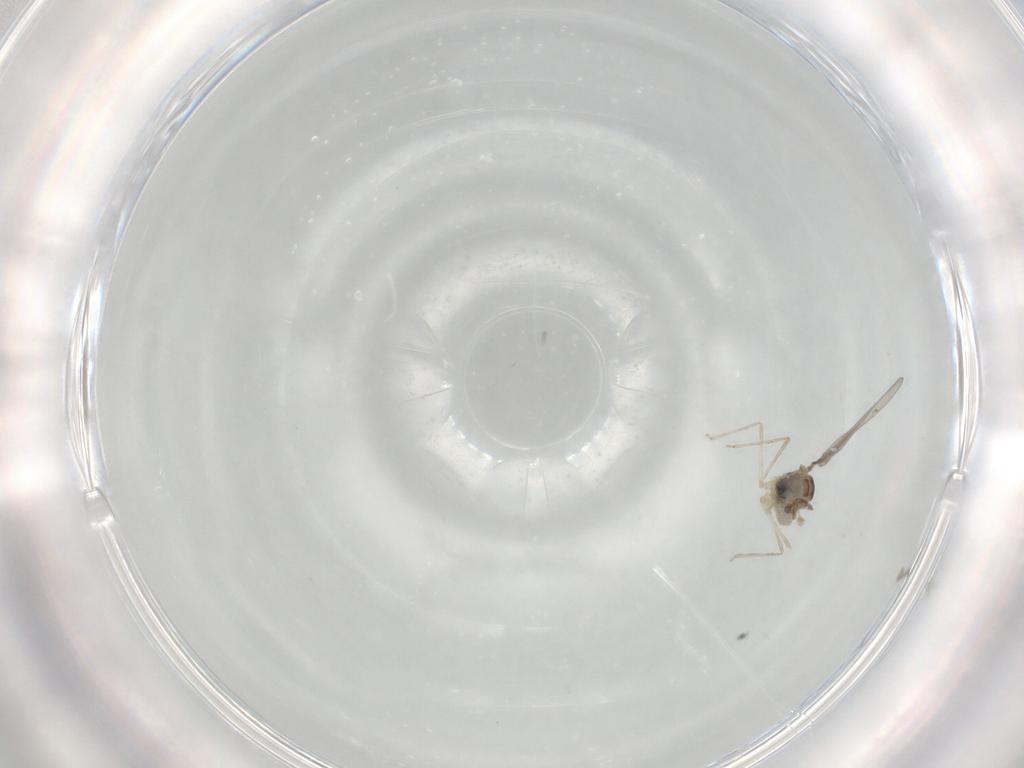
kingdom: Animalia
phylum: Arthropoda
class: Insecta
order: Diptera
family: Cecidomyiidae
